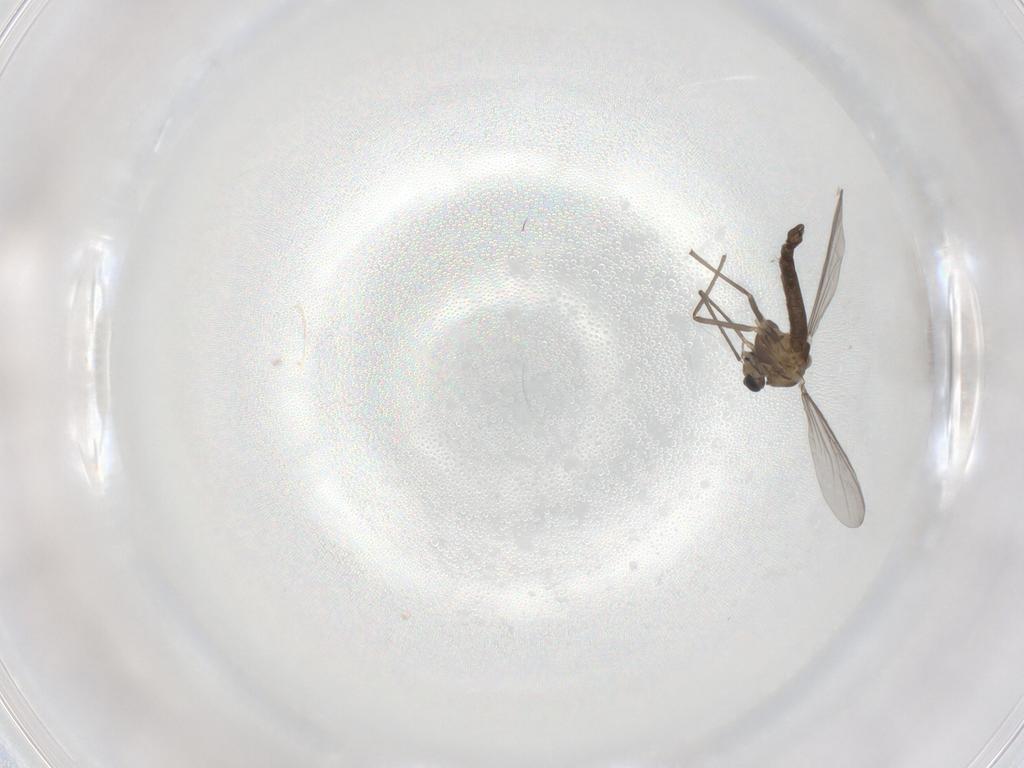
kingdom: Animalia
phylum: Arthropoda
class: Insecta
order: Diptera
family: Chironomidae
